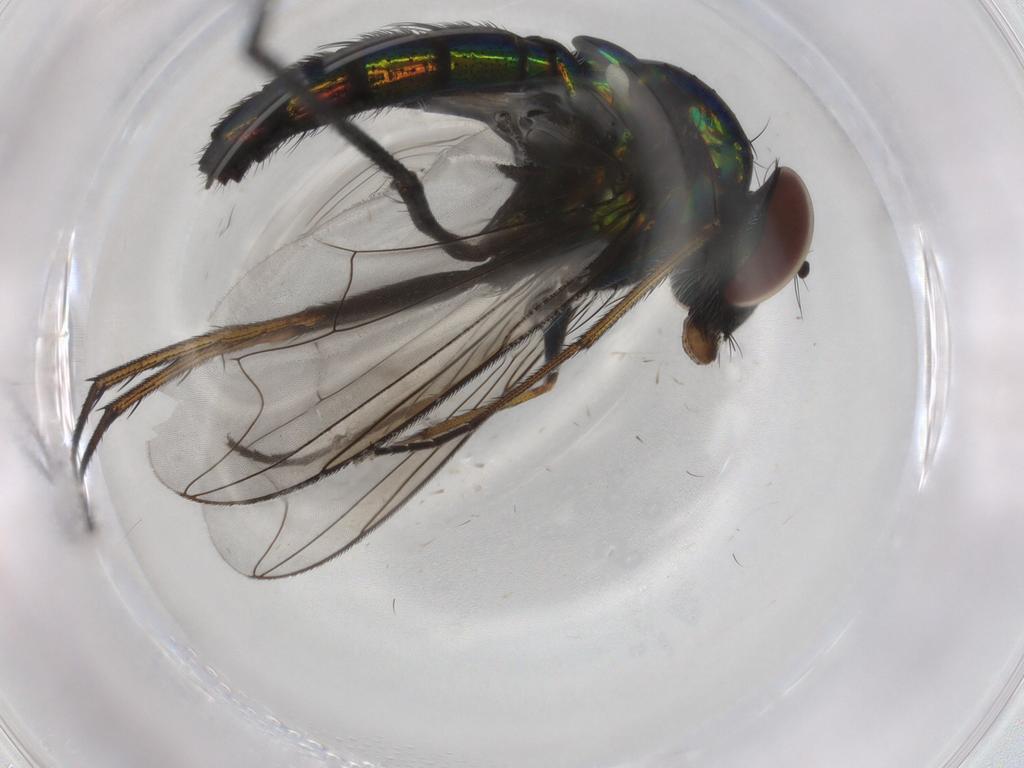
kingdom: Animalia
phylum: Arthropoda
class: Insecta
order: Diptera
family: Dolichopodidae
